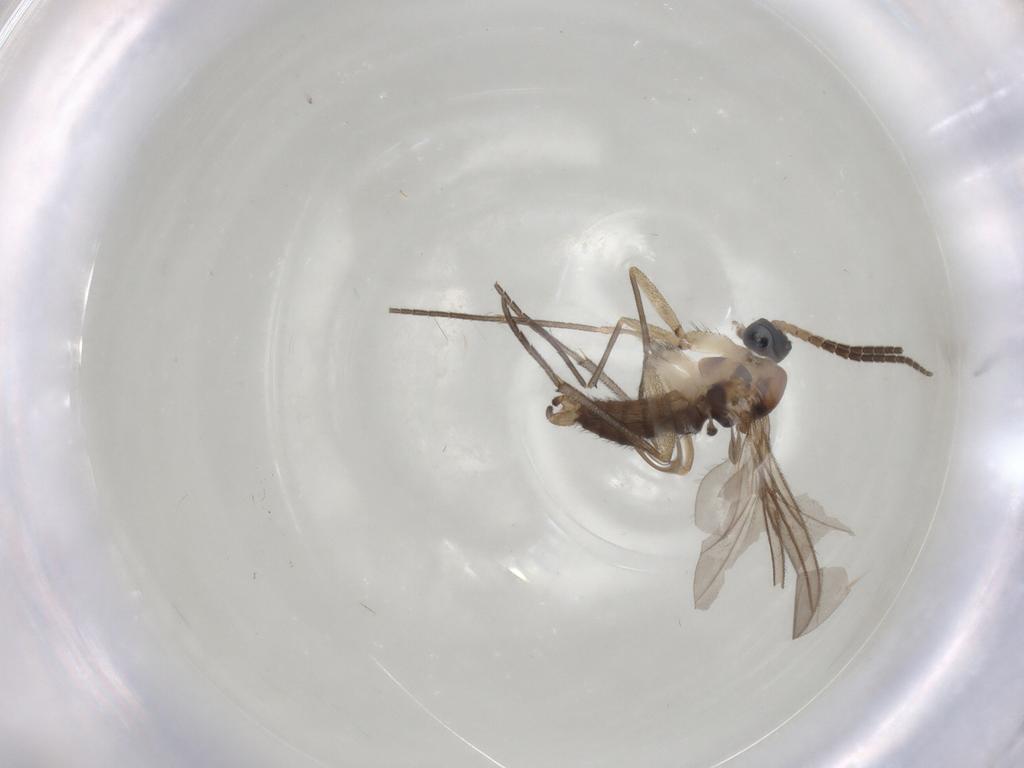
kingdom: Animalia
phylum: Arthropoda
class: Insecta
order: Diptera
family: Sciaridae
